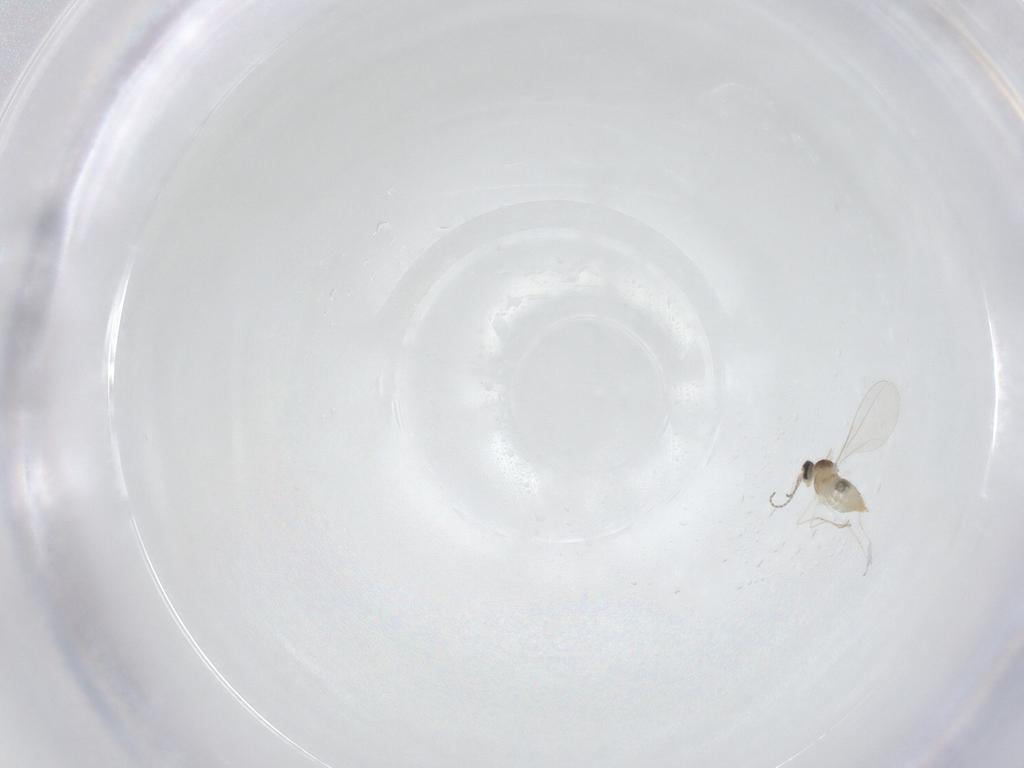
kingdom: Animalia
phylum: Arthropoda
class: Insecta
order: Diptera
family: Cecidomyiidae
